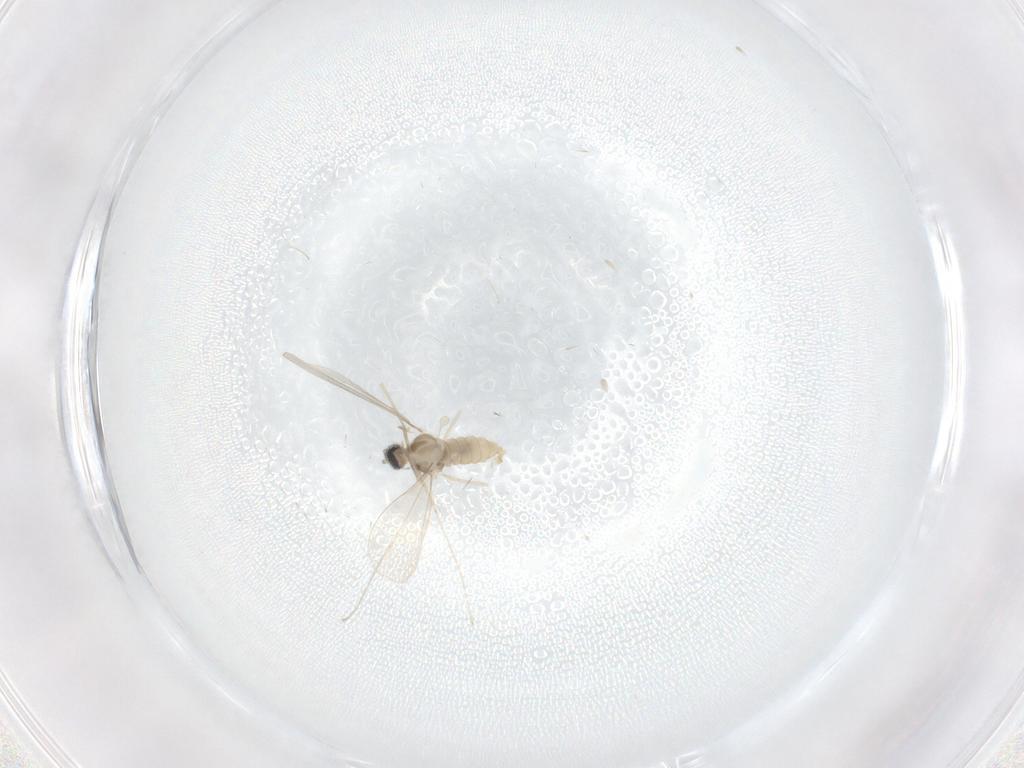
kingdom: Animalia
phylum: Arthropoda
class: Insecta
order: Diptera
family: Cecidomyiidae
